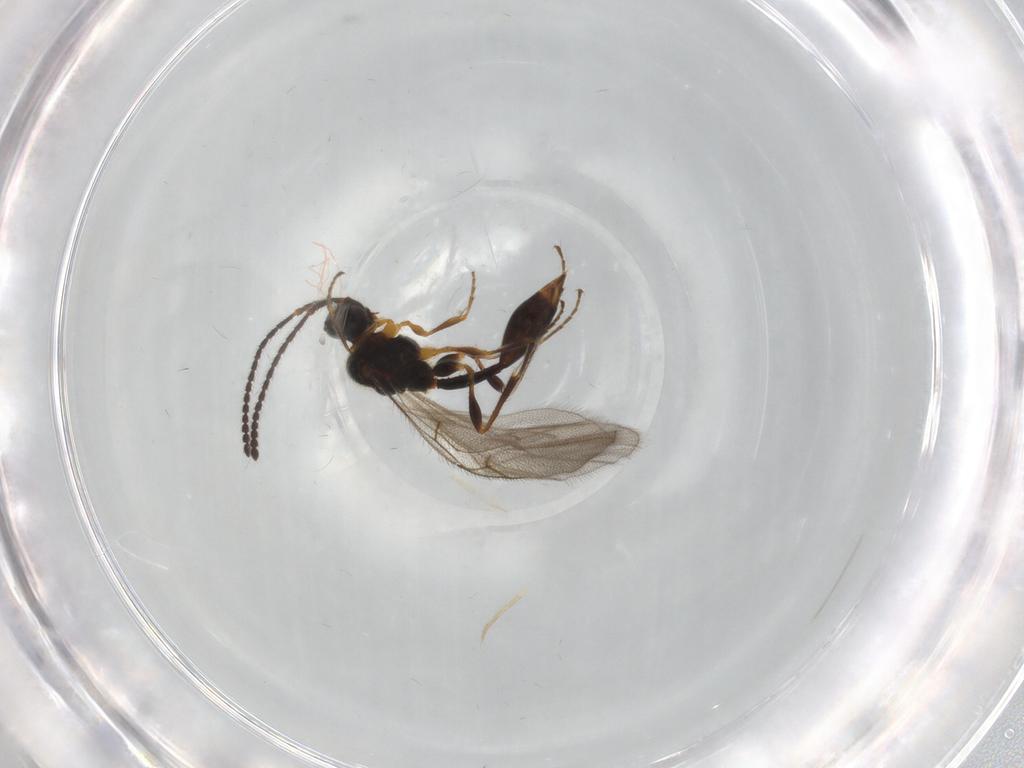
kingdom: Animalia
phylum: Arthropoda
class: Insecta
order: Hymenoptera
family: Diapriidae
